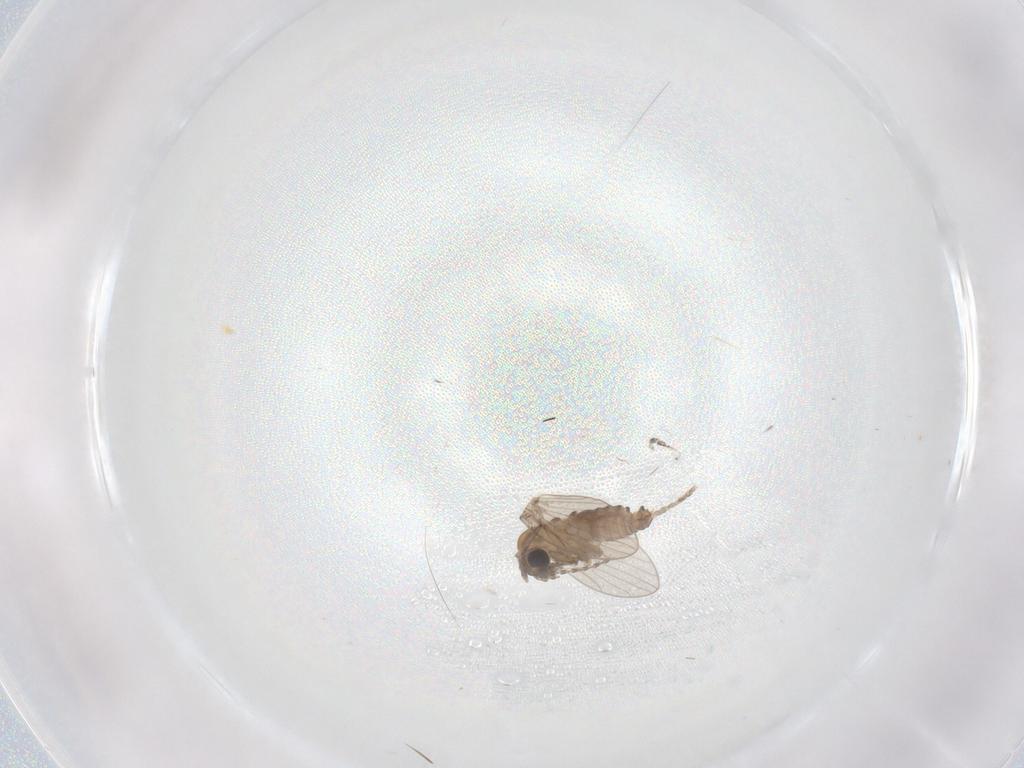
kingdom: Animalia
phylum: Arthropoda
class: Insecta
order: Diptera
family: Psychodidae
